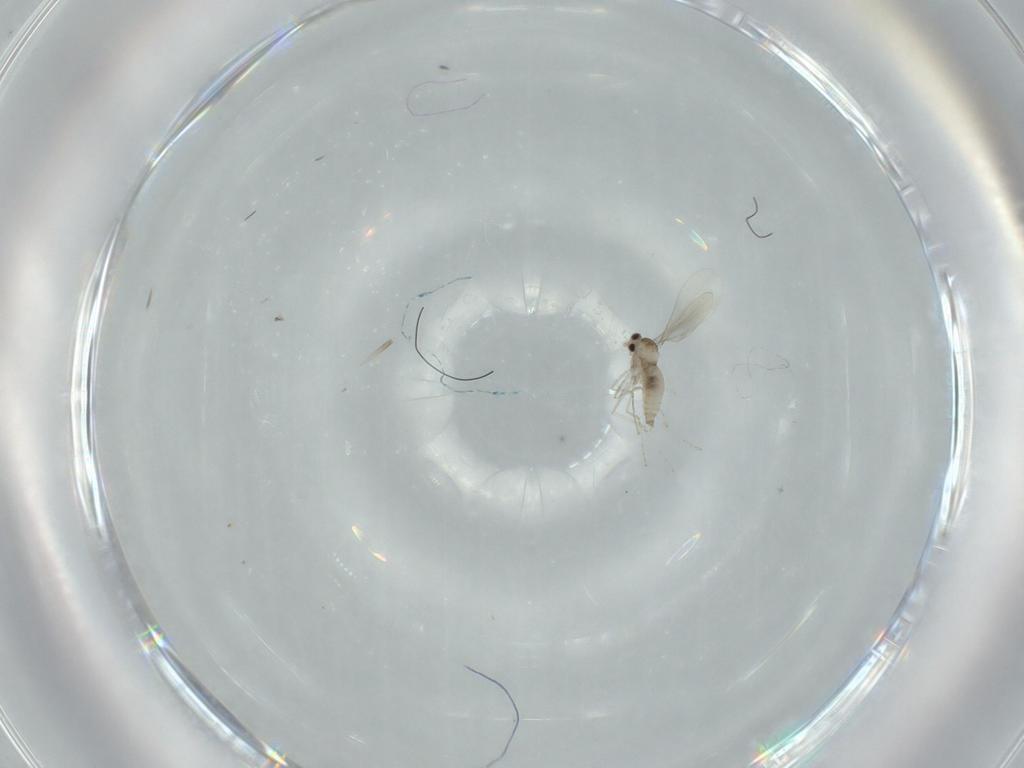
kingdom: Animalia
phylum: Arthropoda
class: Insecta
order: Diptera
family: Cecidomyiidae
